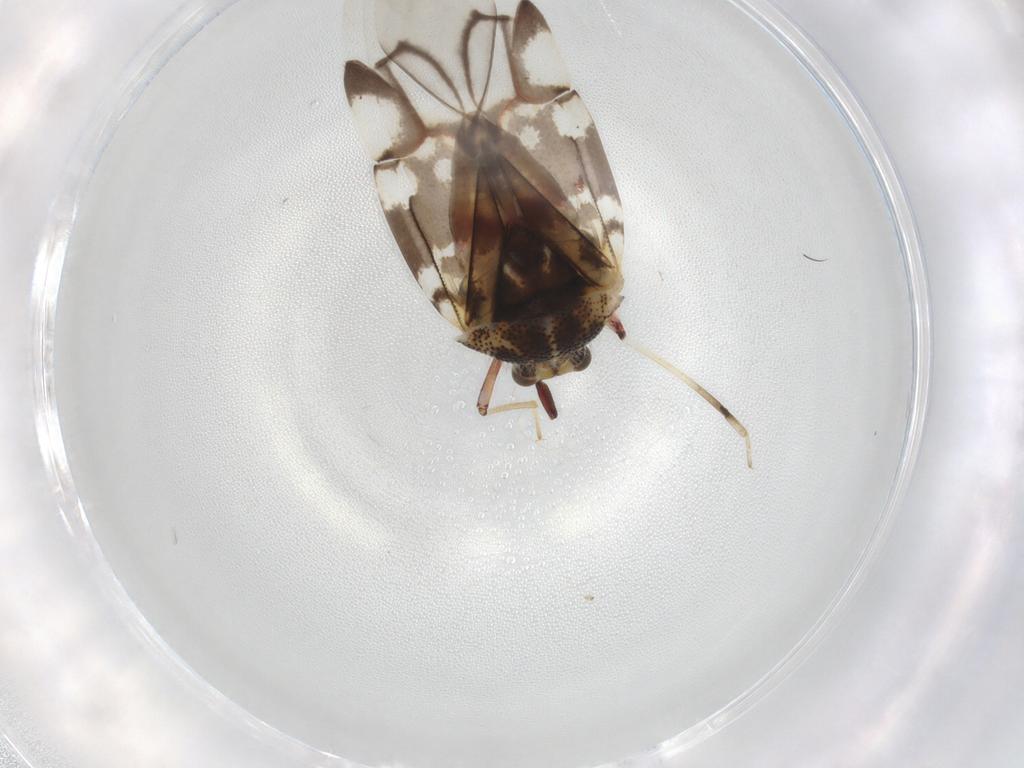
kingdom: Animalia
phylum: Arthropoda
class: Insecta
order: Hemiptera
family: Miridae
